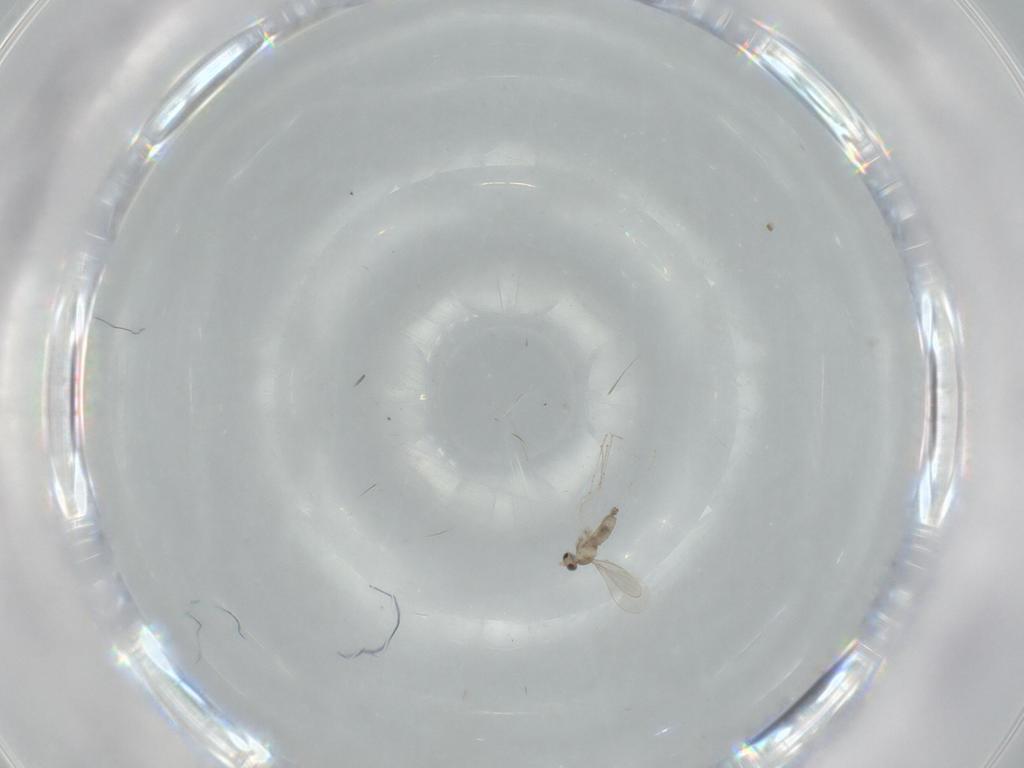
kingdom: Animalia
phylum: Arthropoda
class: Insecta
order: Diptera
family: Cecidomyiidae
